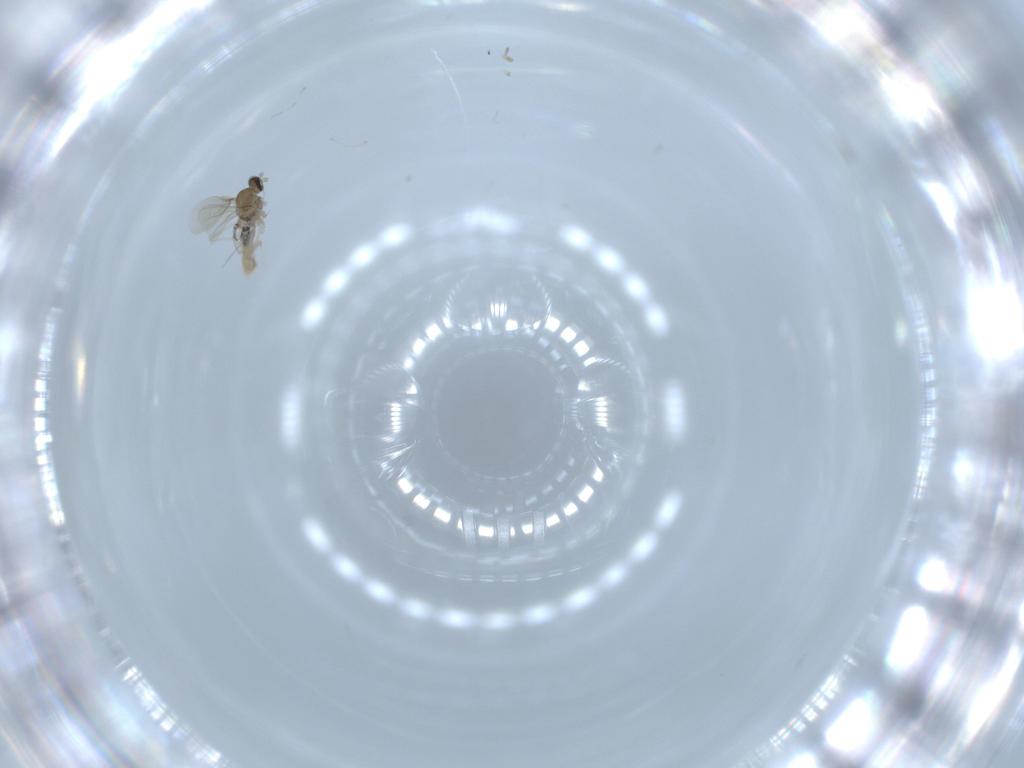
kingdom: Animalia
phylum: Arthropoda
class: Insecta
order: Diptera
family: Cecidomyiidae
